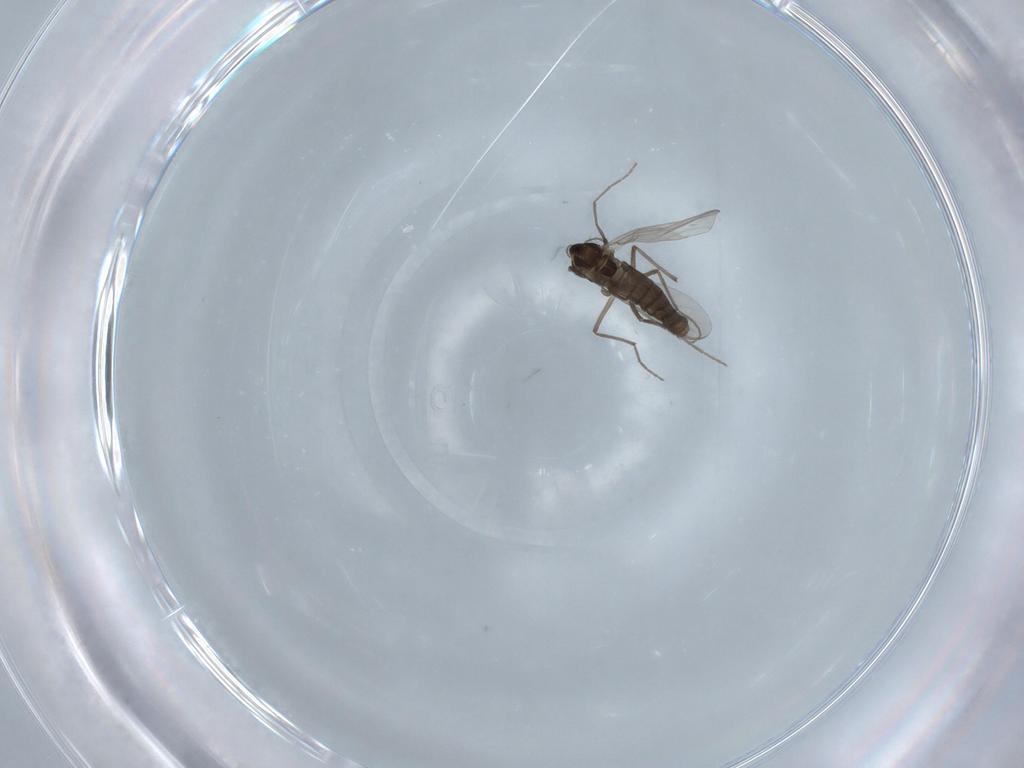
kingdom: Animalia
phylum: Arthropoda
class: Insecta
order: Diptera
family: Chironomidae
